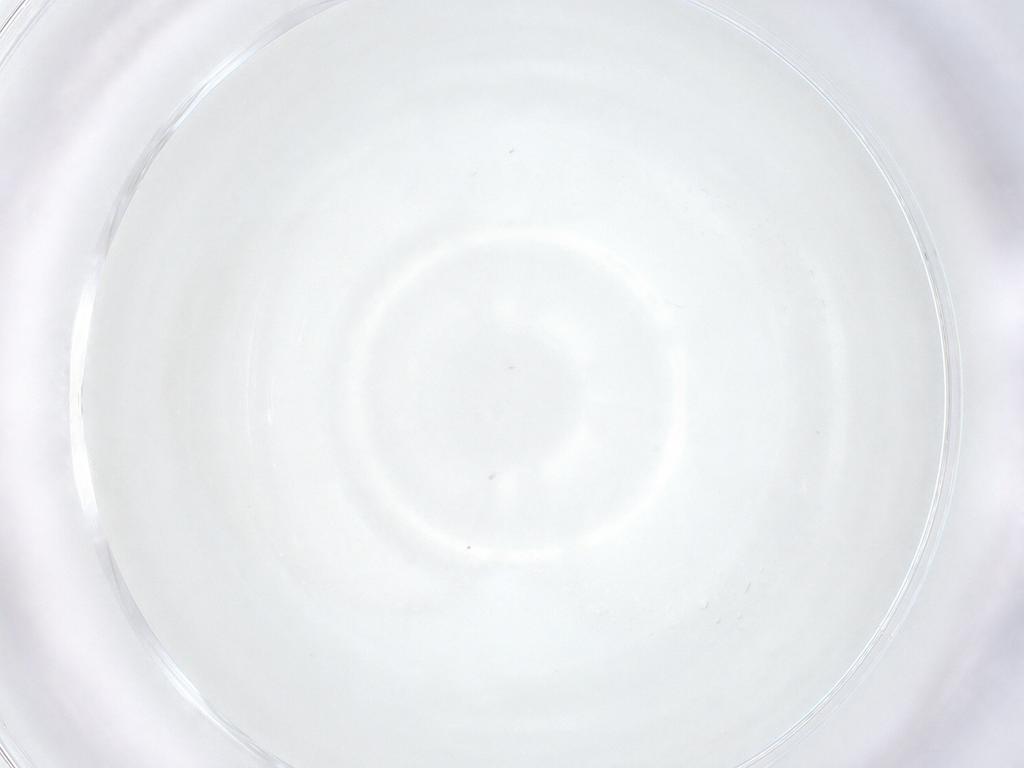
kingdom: Animalia
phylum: Arthropoda
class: Insecta
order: Diptera
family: Cecidomyiidae
